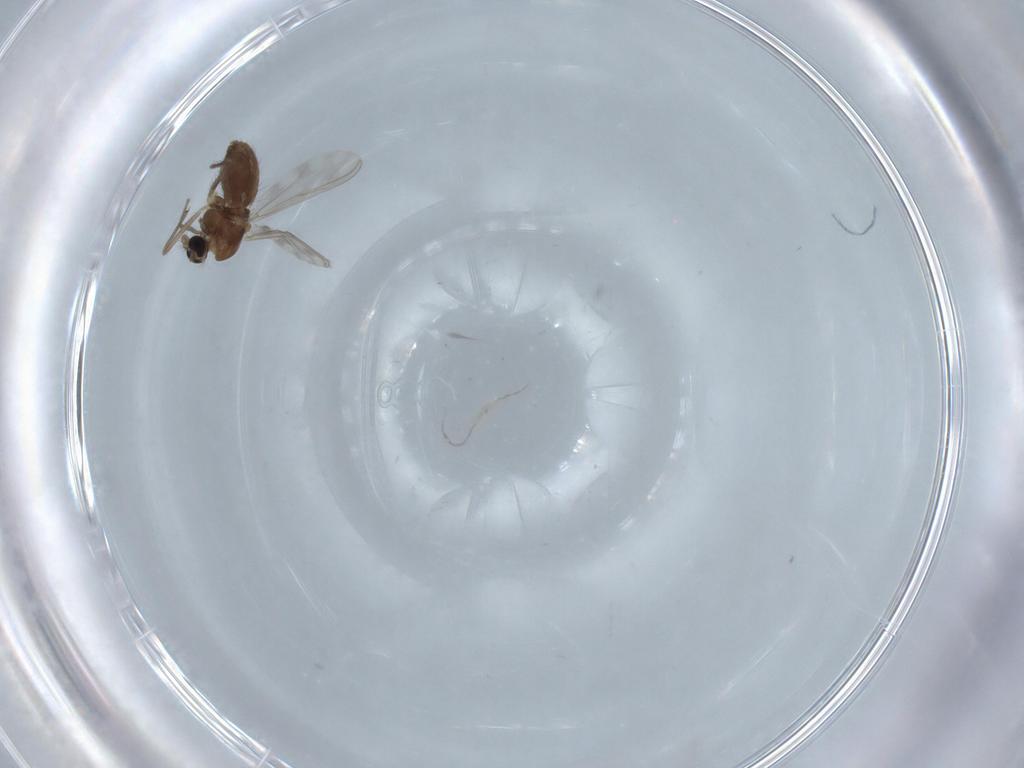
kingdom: Animalia
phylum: Arthropoda
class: Insecta
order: Diptera
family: Chironomidae
